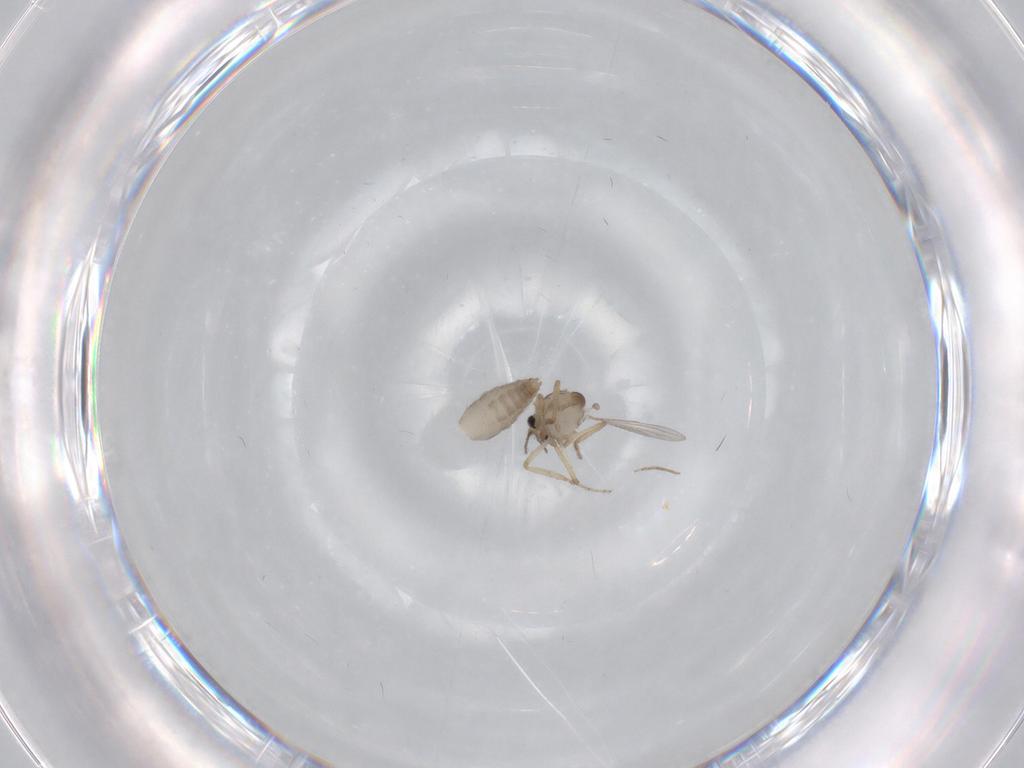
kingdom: Animalia
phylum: Arthropoda
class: Insecta
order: Diptera
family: Ceratopogonidae
